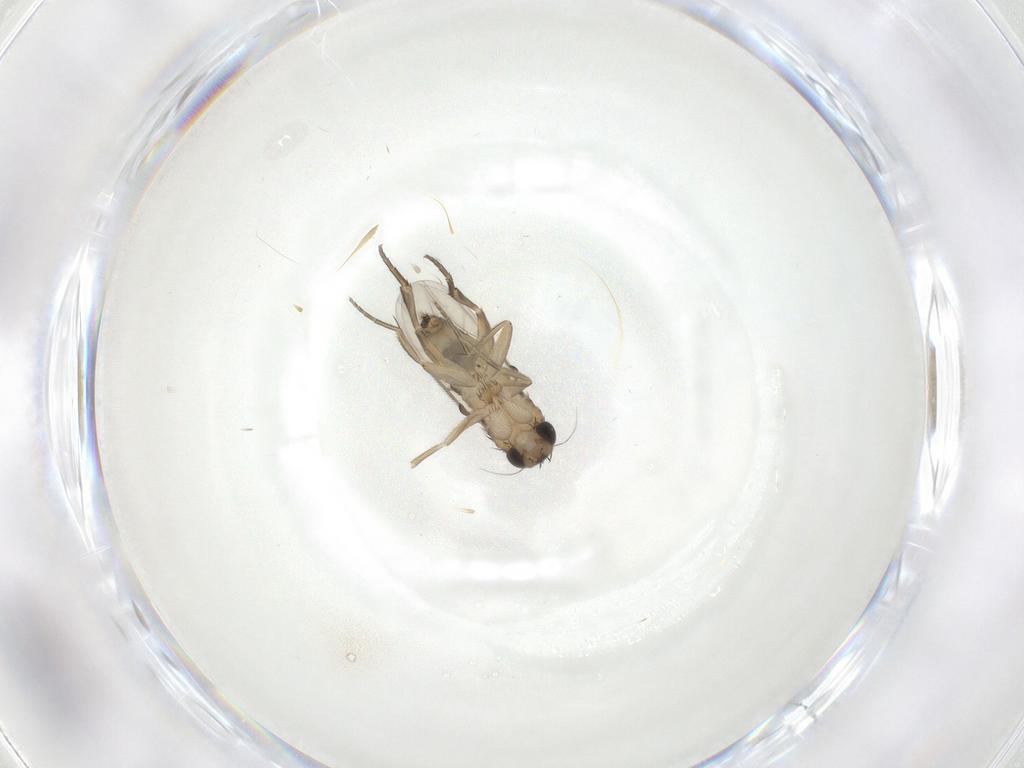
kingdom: Animalia
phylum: Arthropoda
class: Insecta
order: Diptera
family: Phoridae
